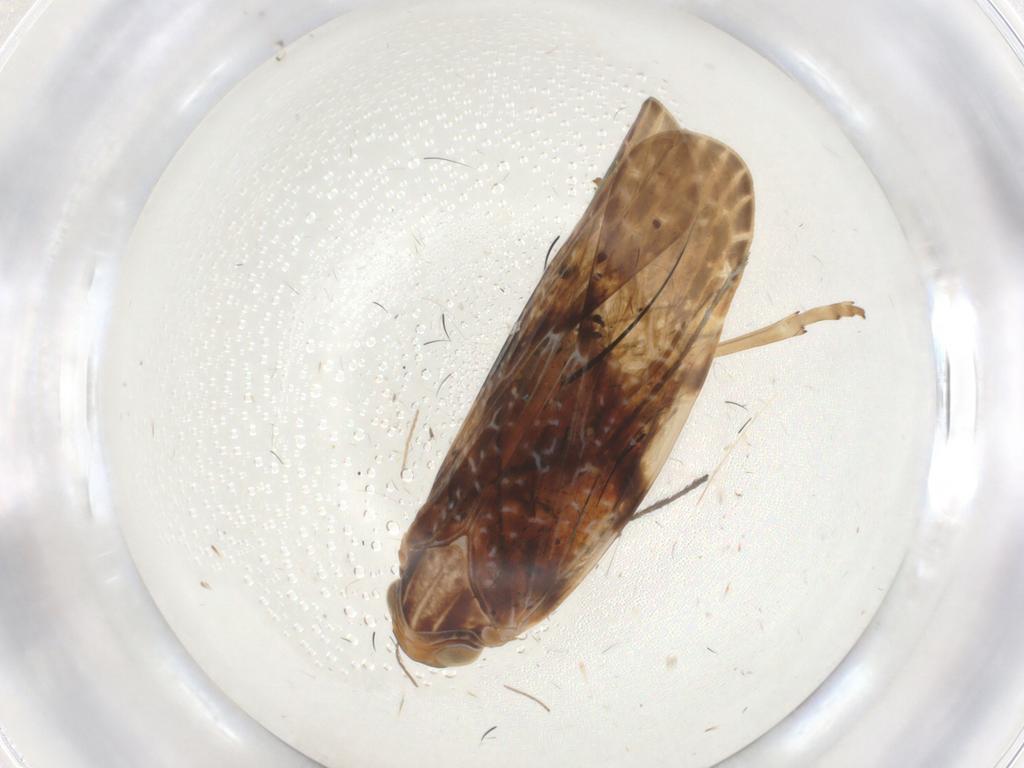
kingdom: Animalia
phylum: Arthropoda
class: Insecta
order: Hemiptera
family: Achilidae
